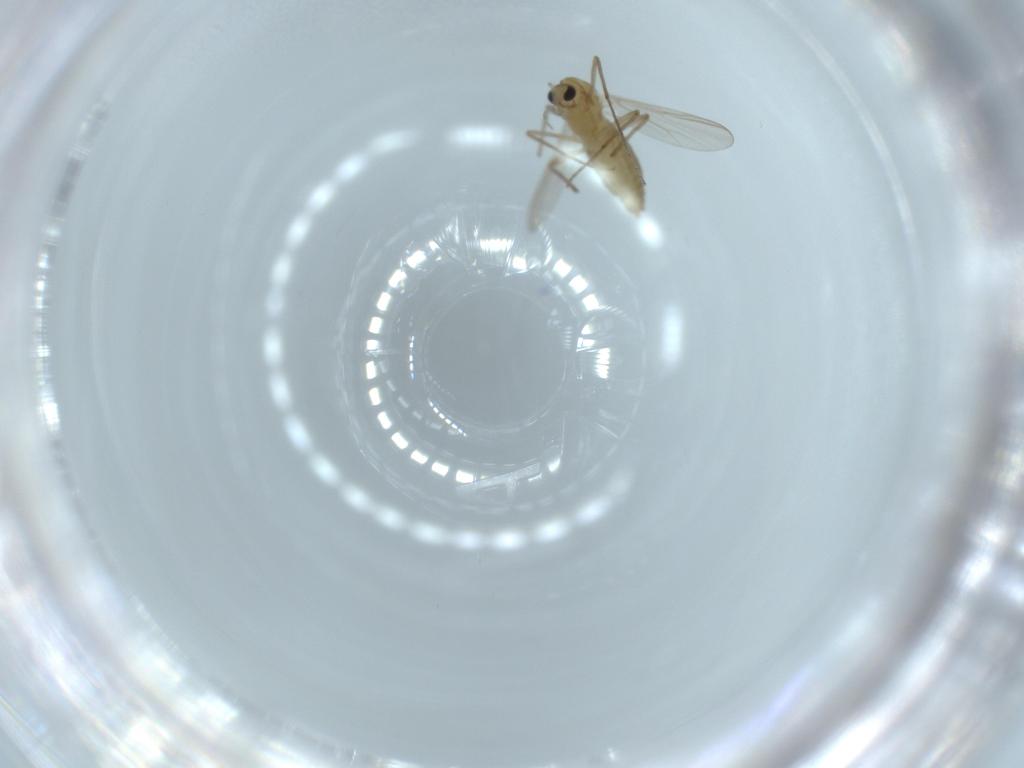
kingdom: Animalia
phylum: Arthropoda
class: Insecta
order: Diptera
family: Chironomidae
